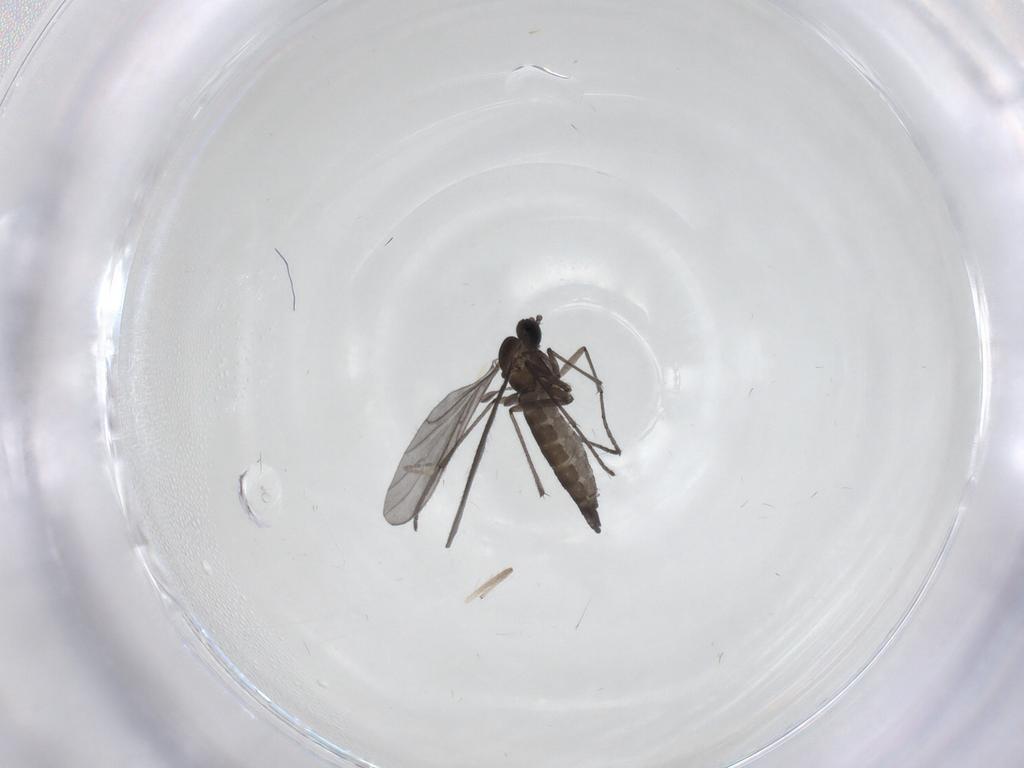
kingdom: Animalia
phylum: Arthropoda
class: Insecta
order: Diptera
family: Sciaridae
